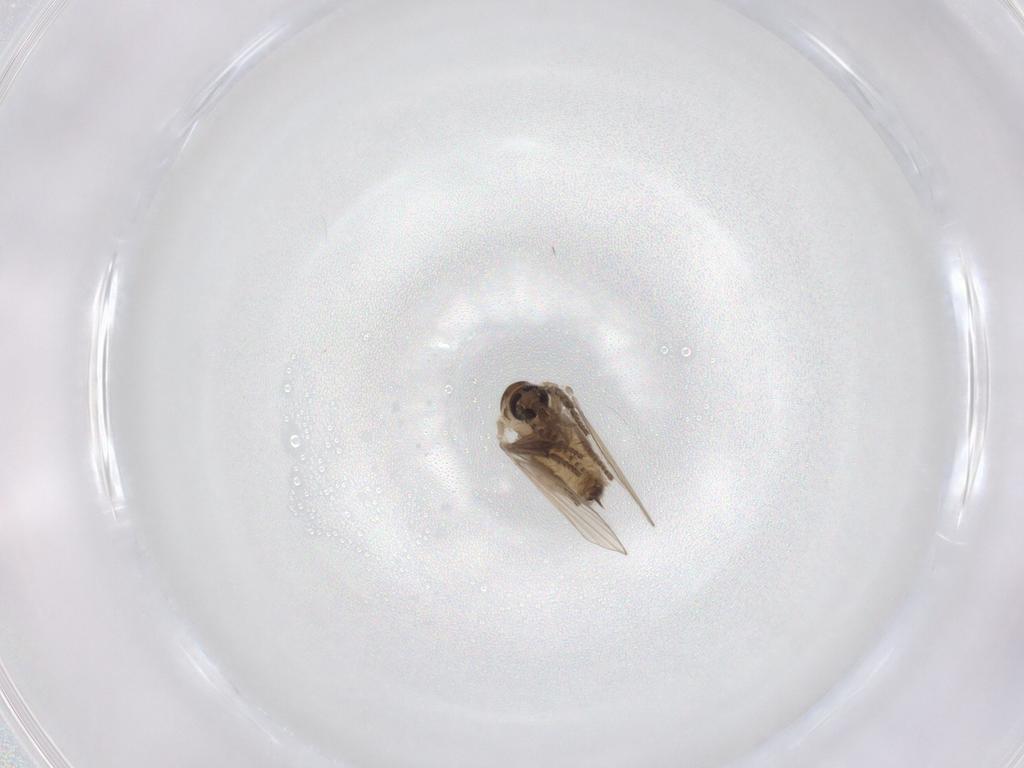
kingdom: Animalia
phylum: Arthropoda
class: Insecta
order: Diptera
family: Psychodidae
